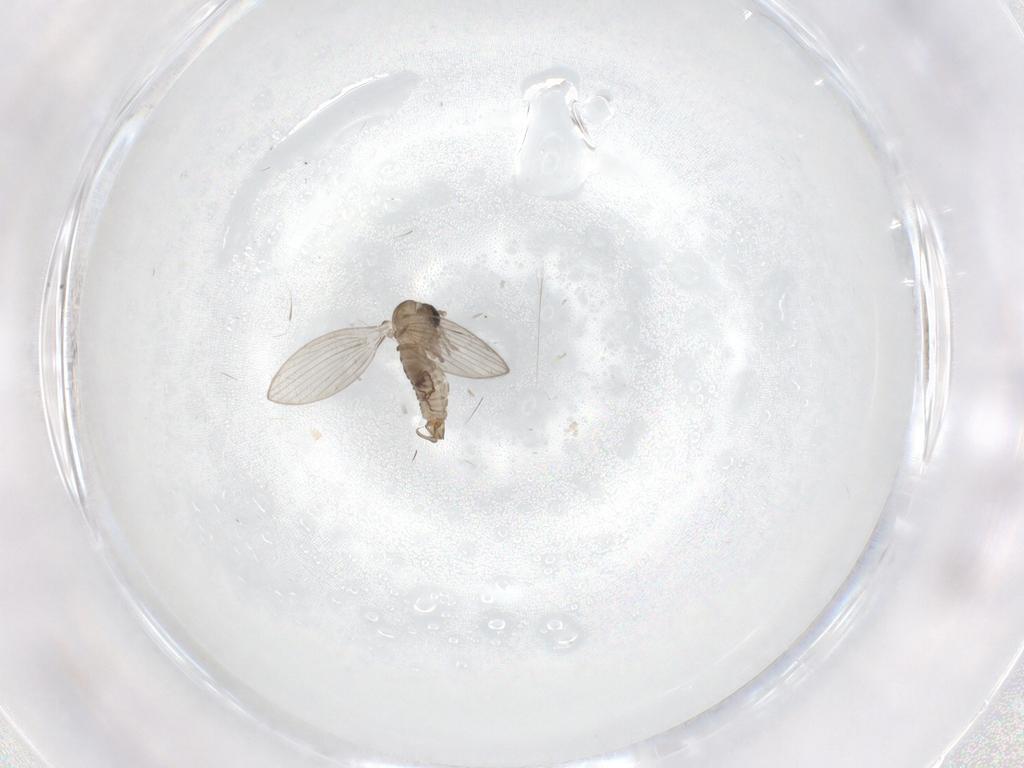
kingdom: Animalia
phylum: Arthropoda
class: Insecta
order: Diptera
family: Psychodidae
